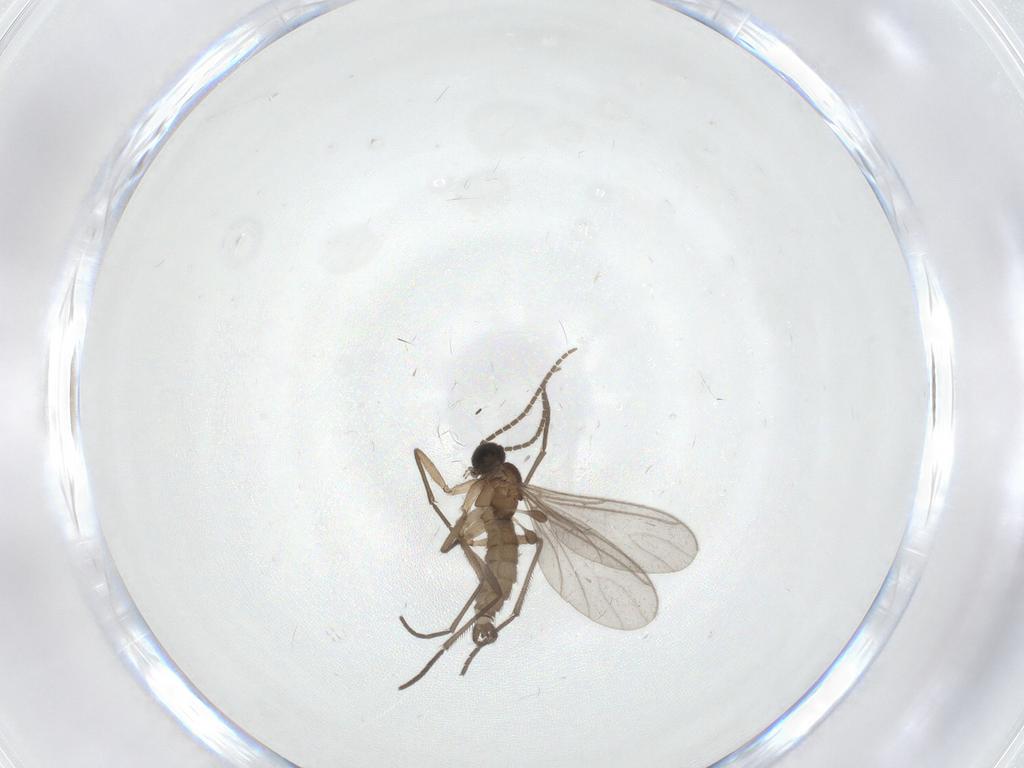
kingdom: Animalia
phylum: Arthropoda
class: Insecta
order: Diptera
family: Sciaridae
